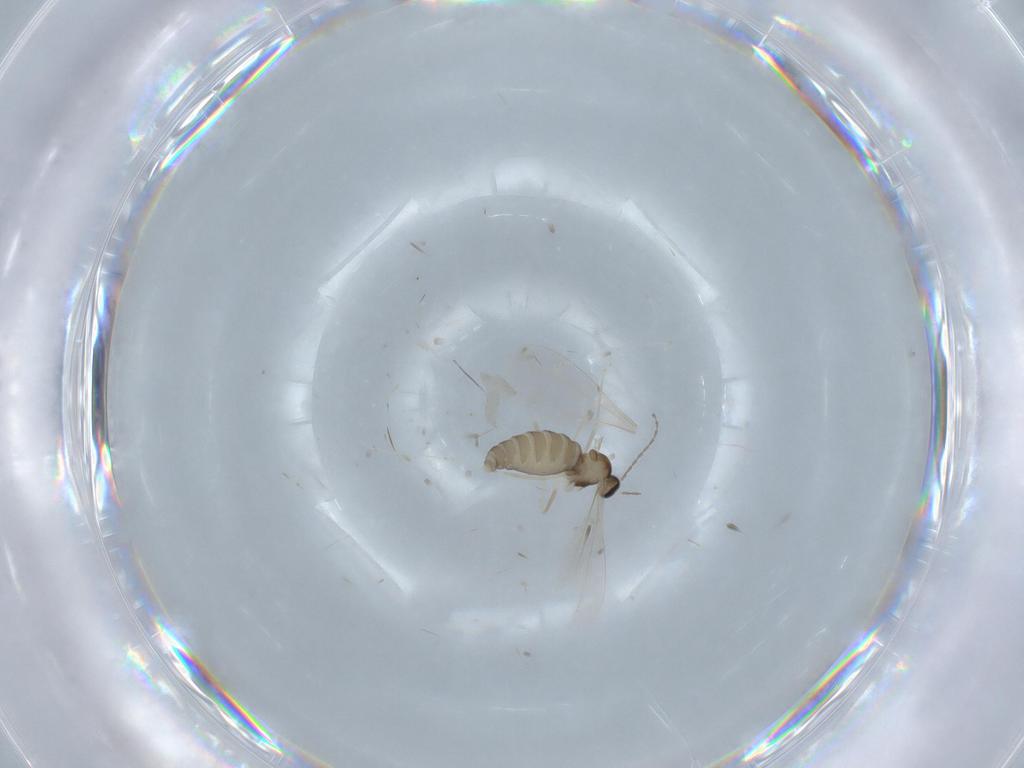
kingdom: Animalia
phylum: Arthropoda
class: Insecta
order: Diptera
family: Cecidomyiidae
